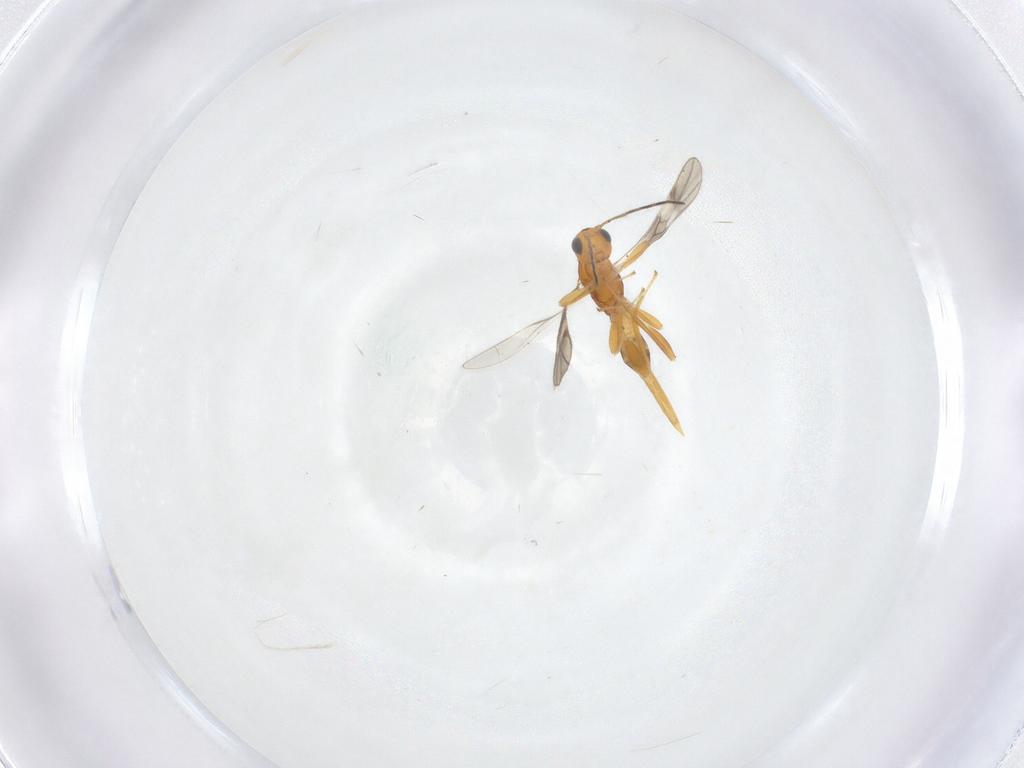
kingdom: Animalia
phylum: Arthropoda
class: Insecta
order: Hymenoptera
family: Braconidae
